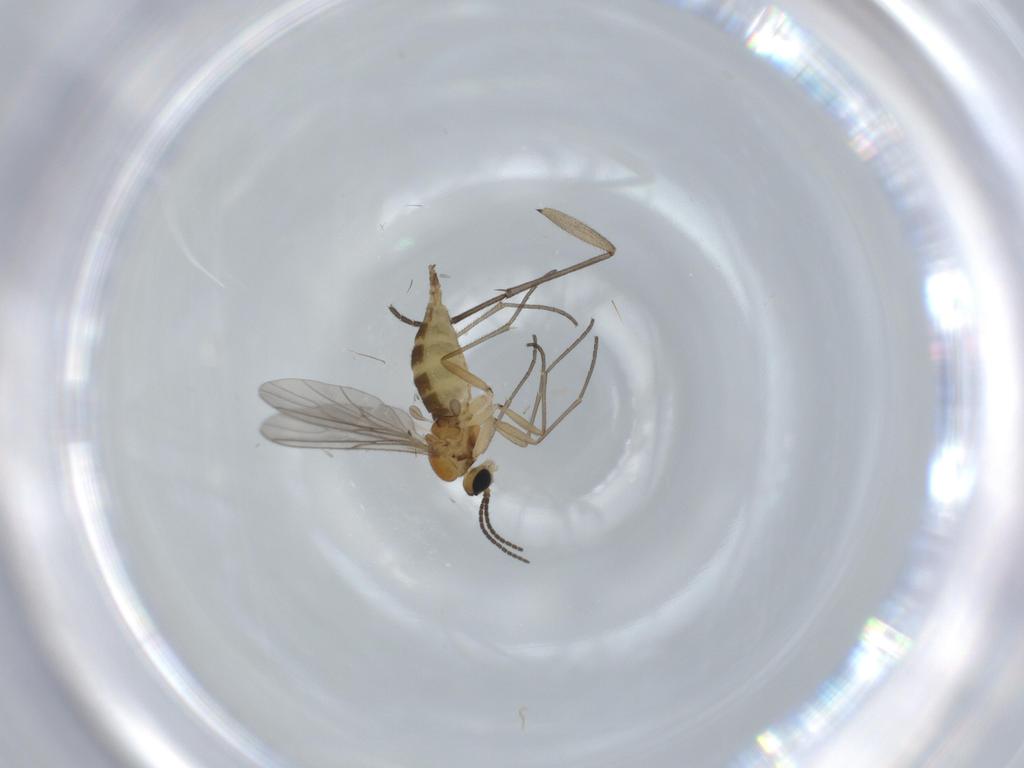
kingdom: Animalia
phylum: Arthropoda
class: Insecta
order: Diptera
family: Sciaridae
